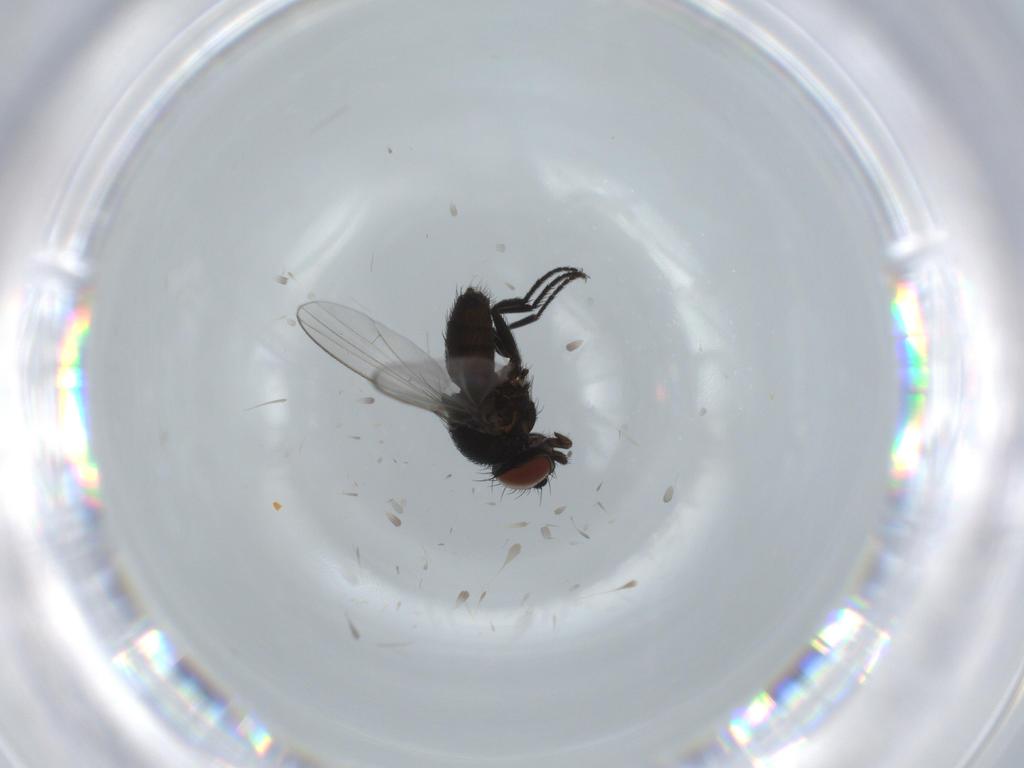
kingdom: Animalia
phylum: Arthropoda
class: Insecta
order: Diptera
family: Milichiidae
